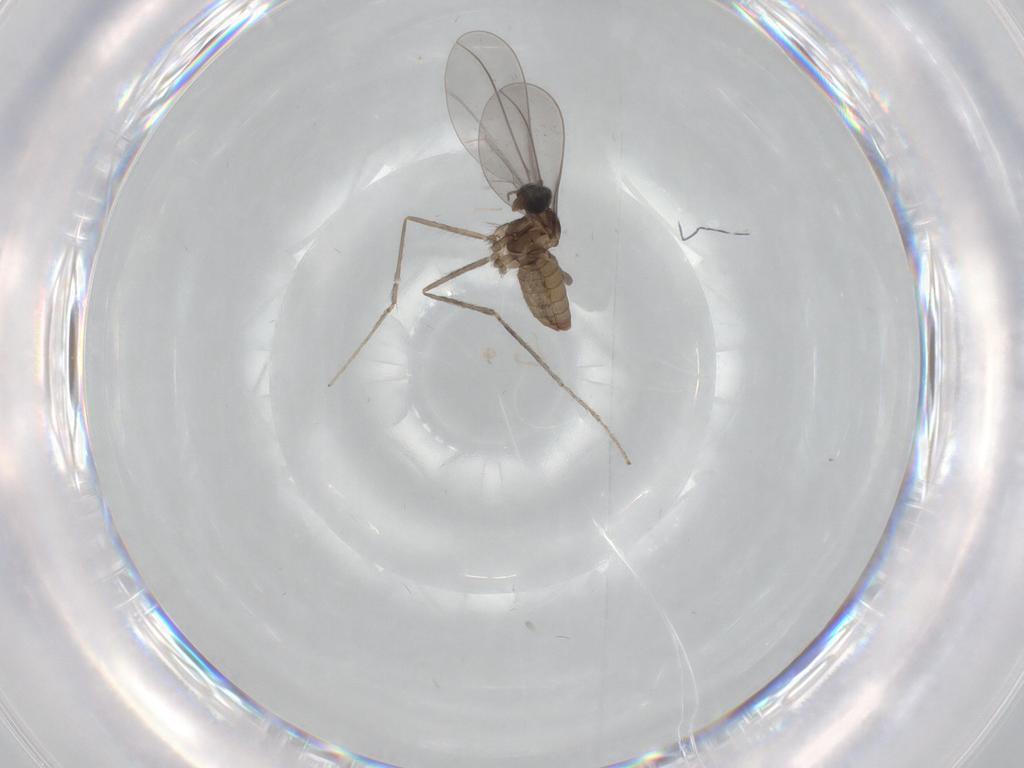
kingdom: Animalia
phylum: Arthropoda
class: Insecta
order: Diptera
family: Cecidomyiidae
